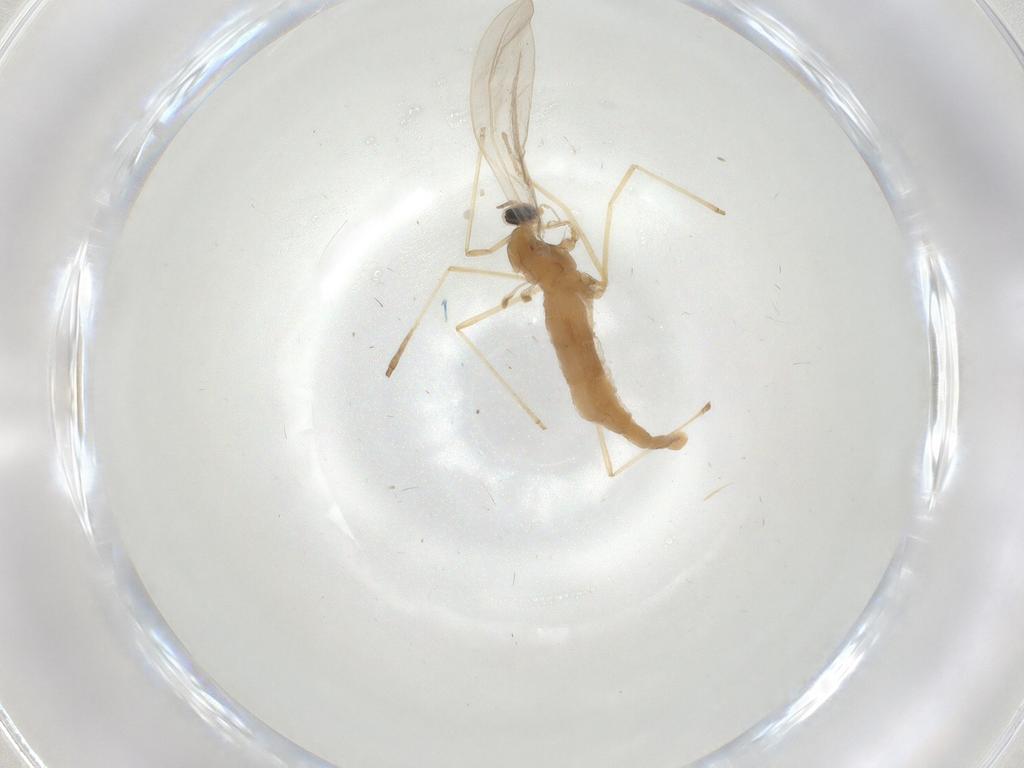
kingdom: Animalia
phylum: Arthropoda
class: Insecta
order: Diptera
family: Cecidomyiidae
